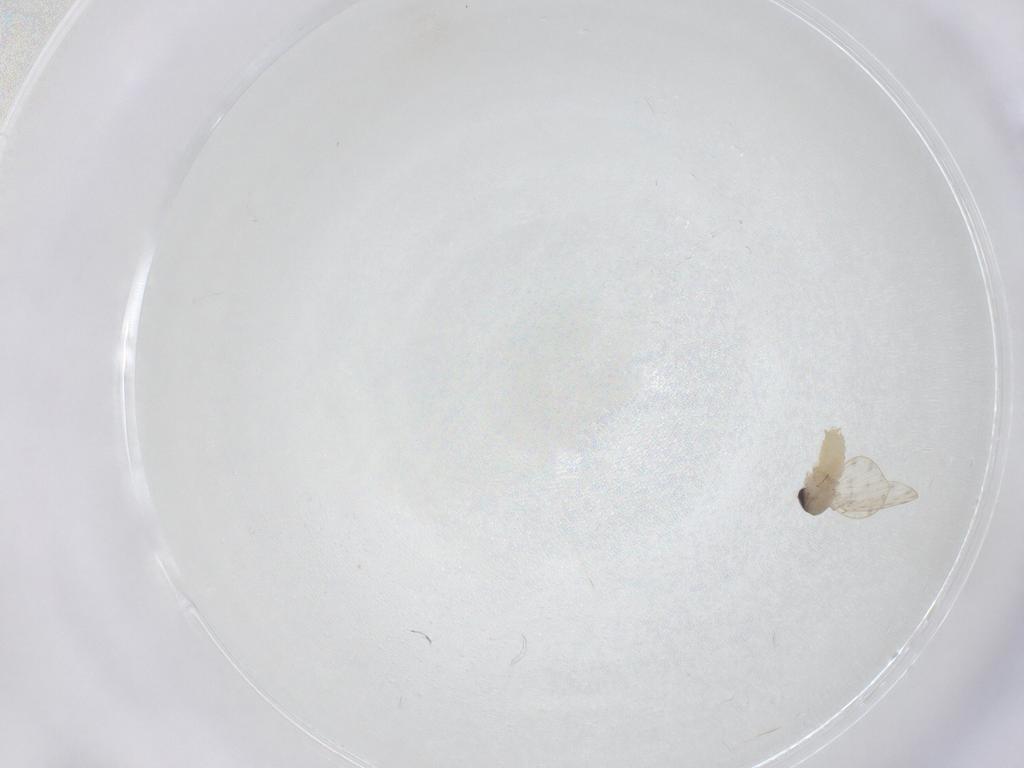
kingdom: Animalia
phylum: Arthropoda
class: Insecta
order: Diptera
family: Psychodidae
